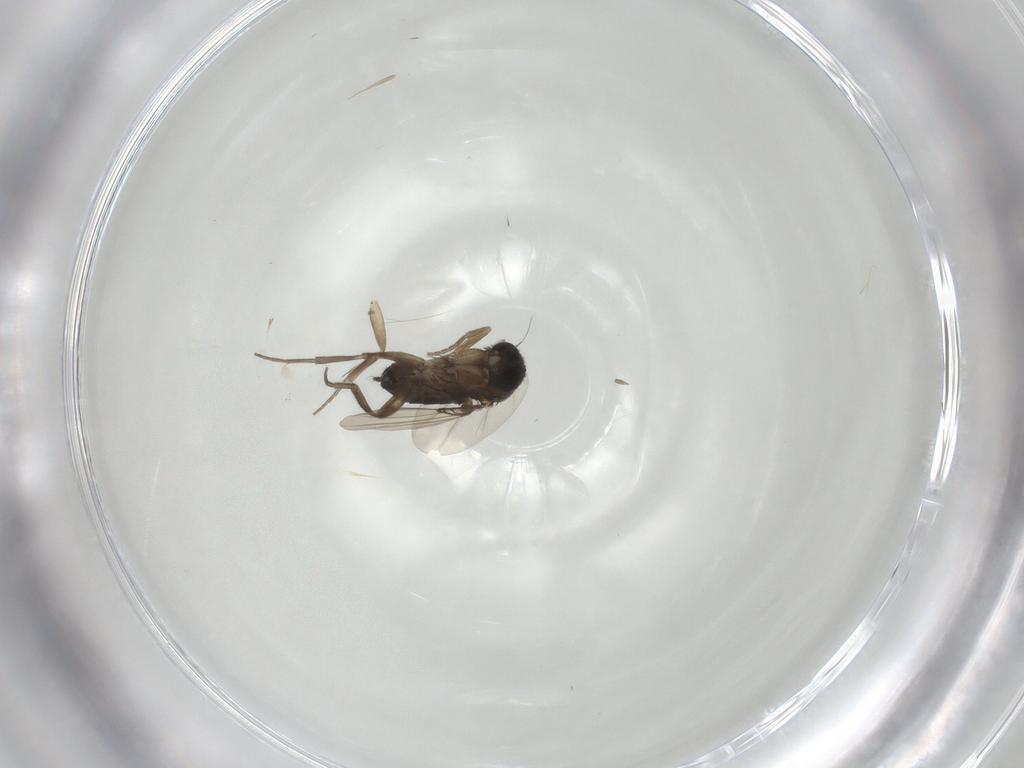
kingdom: Animalia
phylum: Arthropoda
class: Insecta
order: Diptera
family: Phoridae
